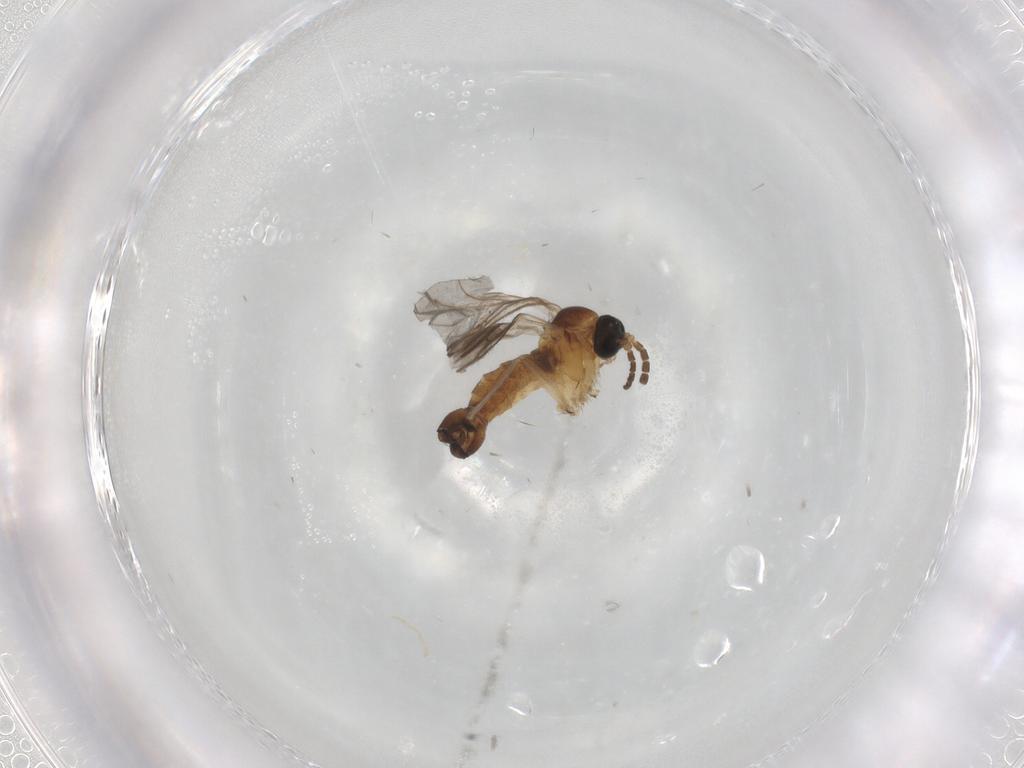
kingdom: Animalia
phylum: Arthropoda
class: Insecta
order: Diptera
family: Sciaridae
